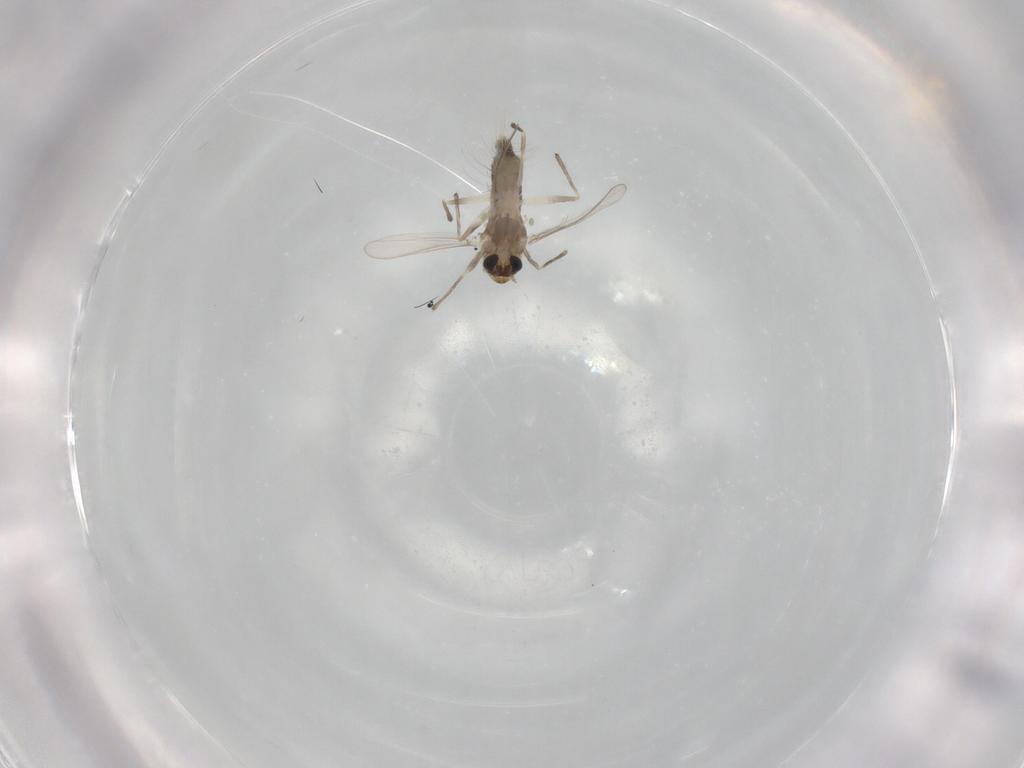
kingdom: Animalia
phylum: Arthropoda
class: Insecta
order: Diptera
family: Chironomidae
